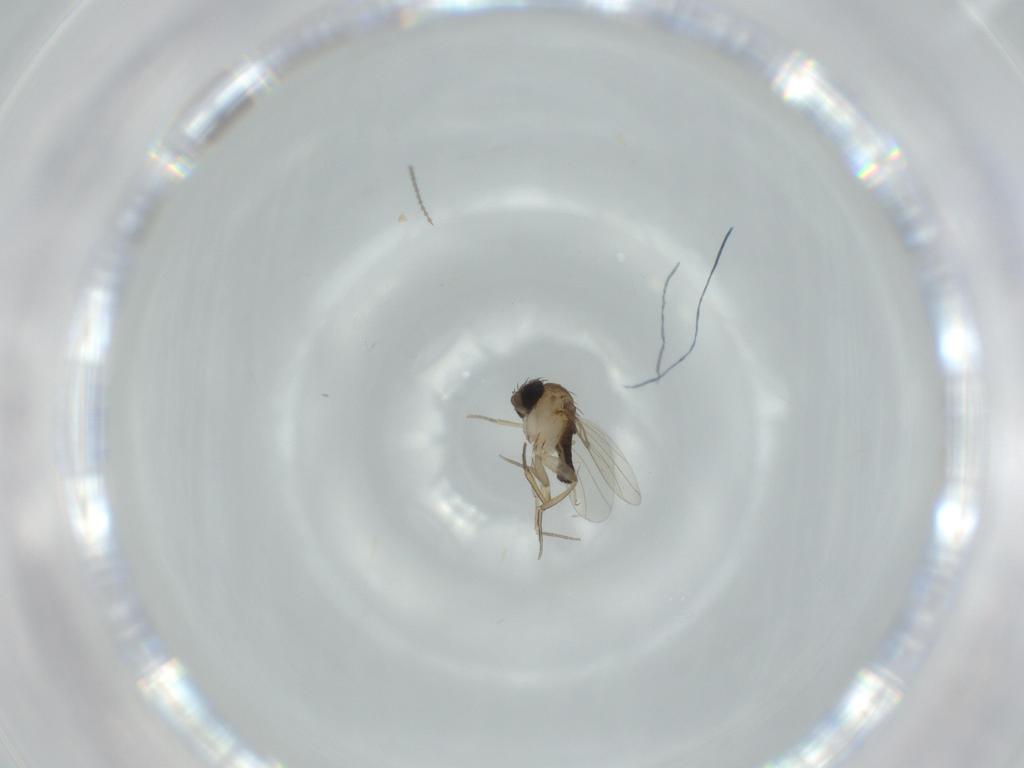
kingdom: Animalia
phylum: Arthropoda
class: Insecta
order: Diptera
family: Phoridae
